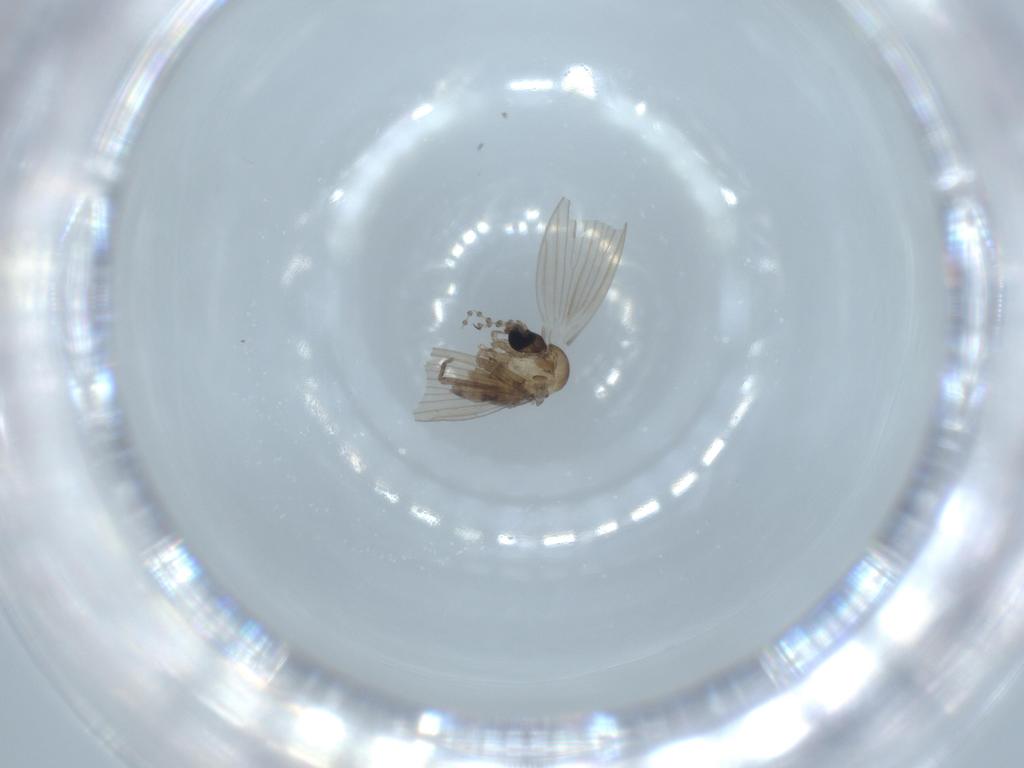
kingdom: Animalia
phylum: Arthropoda
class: Insecta
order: Diptera
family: Psychodidae
